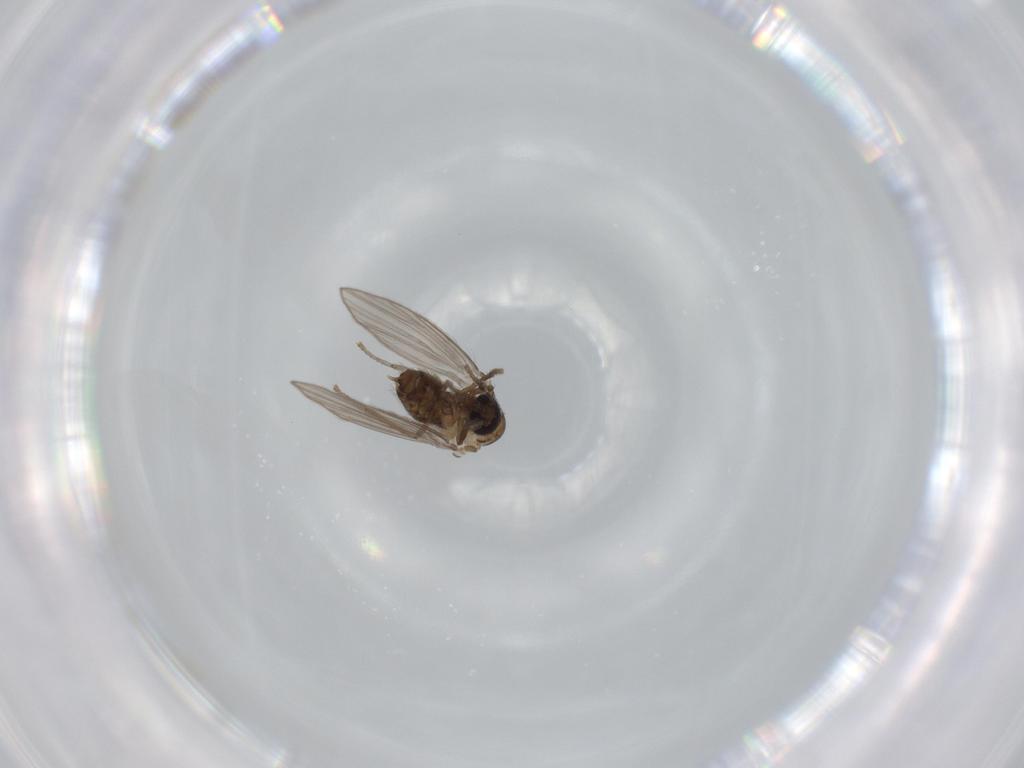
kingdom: Animalia
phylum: Arthropoda
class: Insecta
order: Diptera
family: Psychodidae
